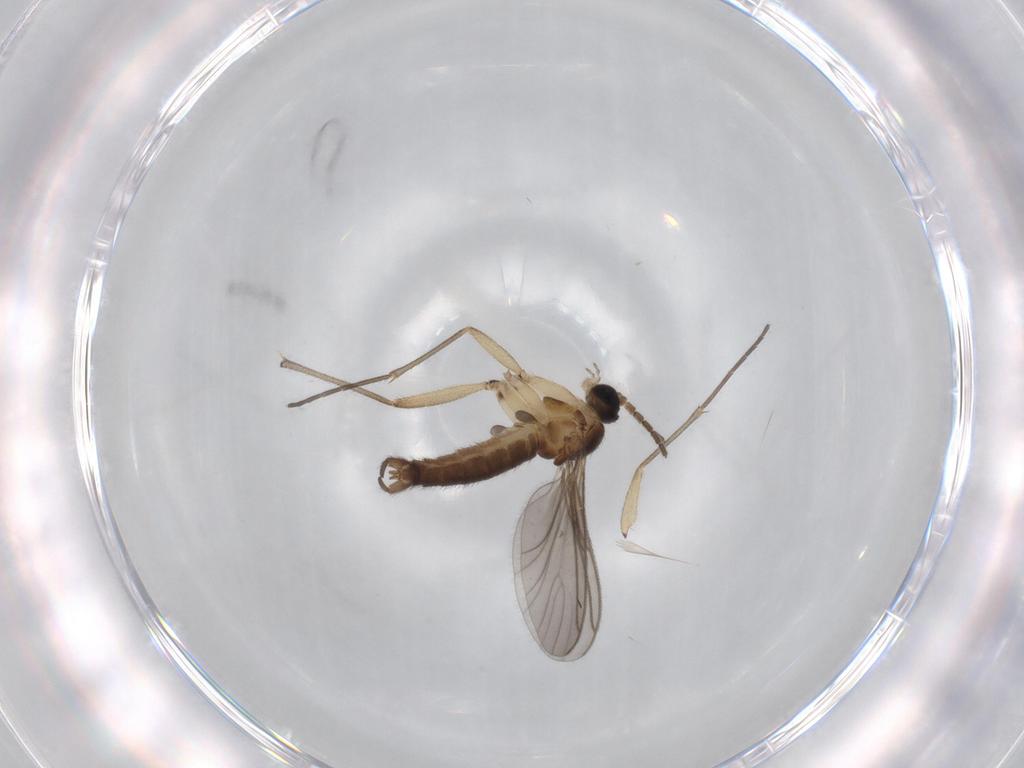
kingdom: Animalia
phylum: Arthropoda
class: Insecta
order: Diptera
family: Sciaridae
